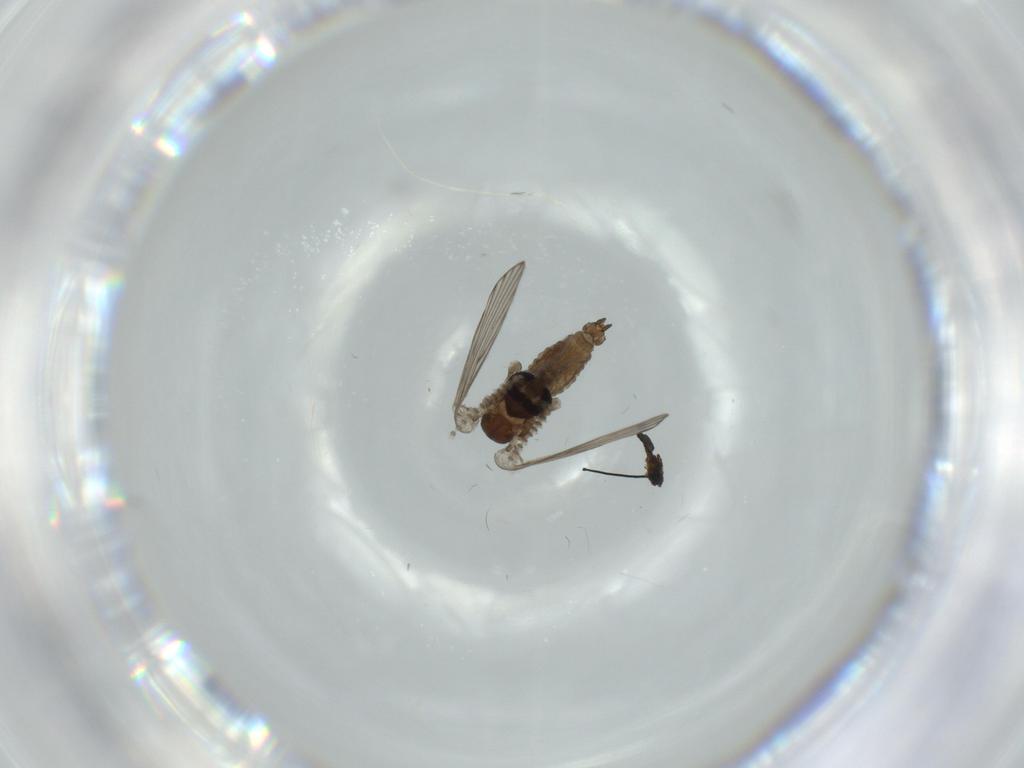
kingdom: Animalia
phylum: Arthropoda
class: Insecta
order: Diptera
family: Psychodidae
